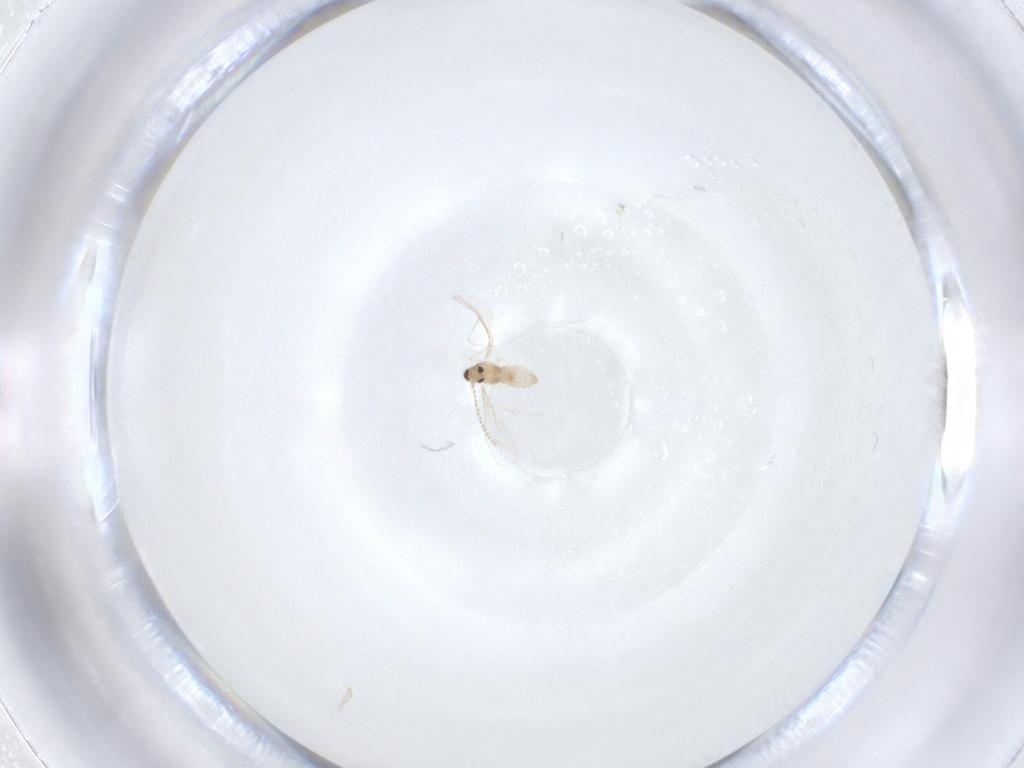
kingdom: Animalia
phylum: Arthropoda
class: Insecta
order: Diptera
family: Cecidomyiidae
